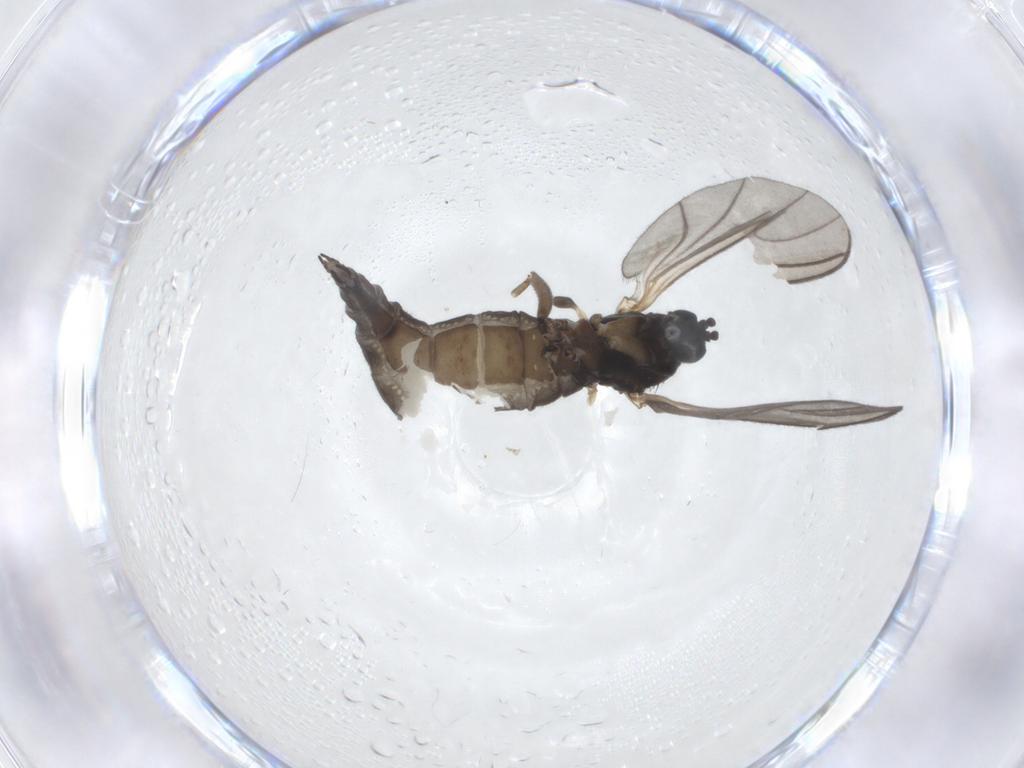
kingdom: Animalia
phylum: Arthropoda
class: Insecta
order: Diptera
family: Sciaridae
